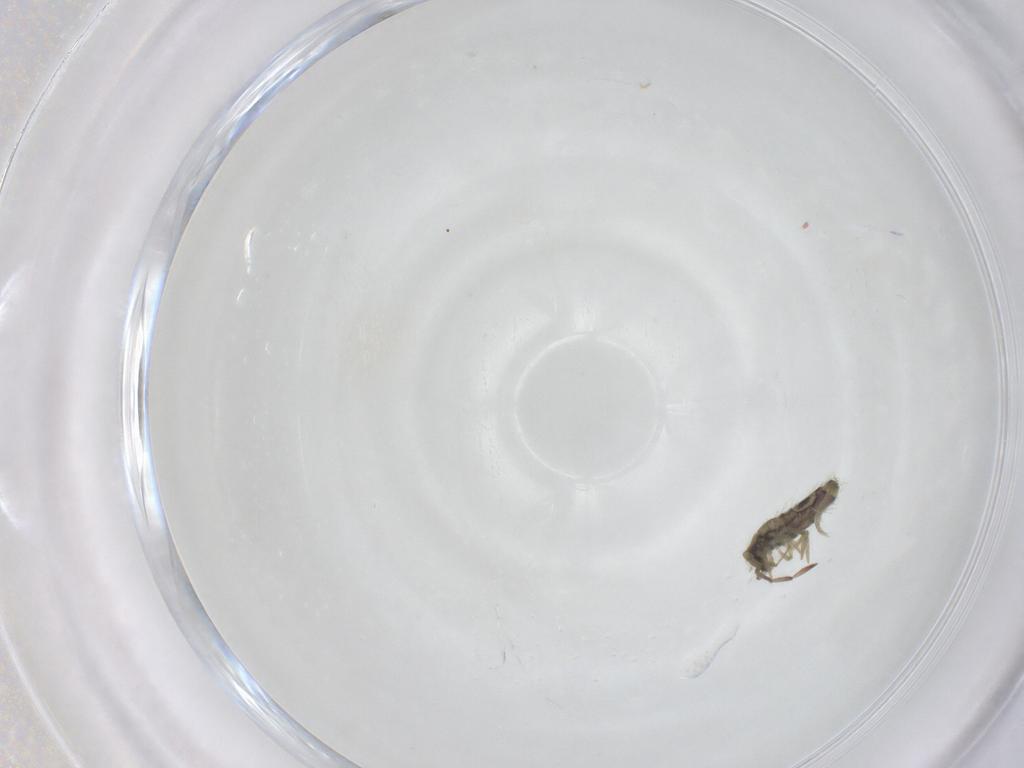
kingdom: Animalia
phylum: Arthropoda
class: Collembola
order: Entomobryomorpha
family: Entomobryidae
